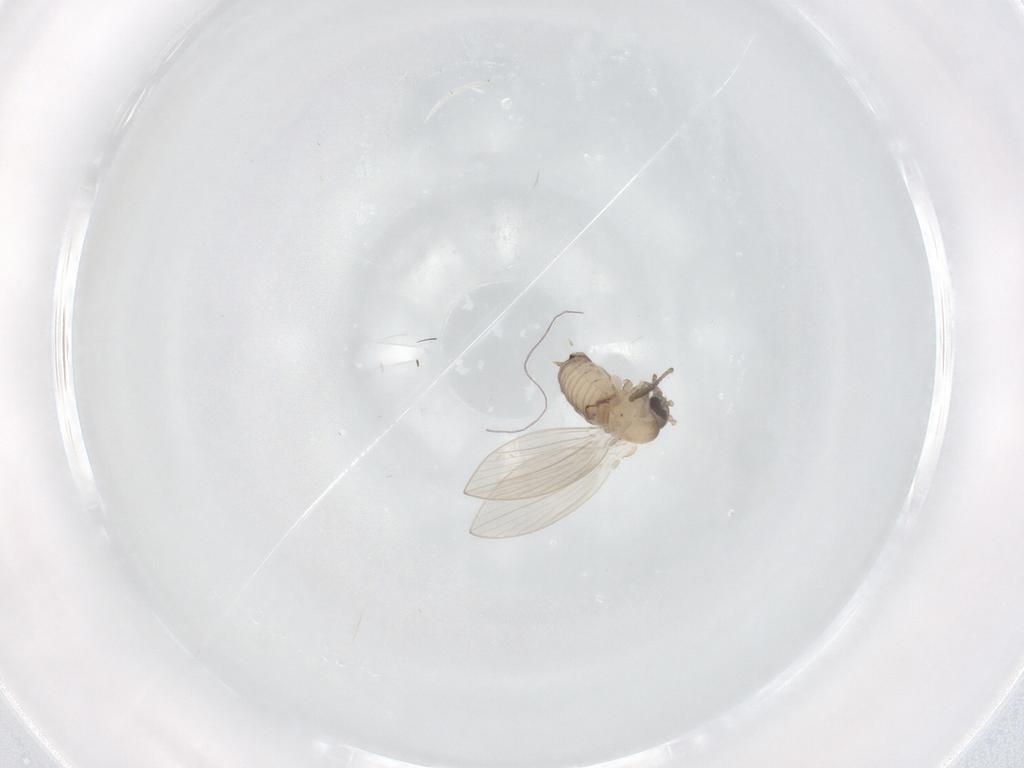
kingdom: Animalia
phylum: Arthropoda
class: Insecta
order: Diptera
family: Psychodidae
